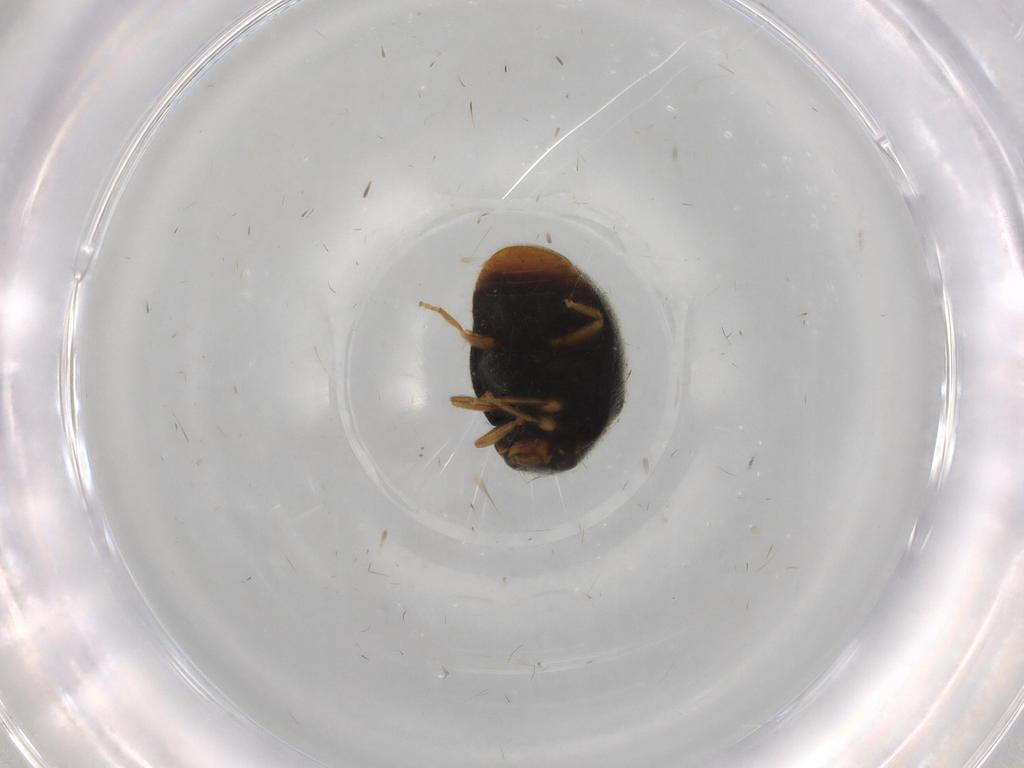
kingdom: Animalia
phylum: Arthropoda
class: Insecta
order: Coleoptera
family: Coccinellidae
